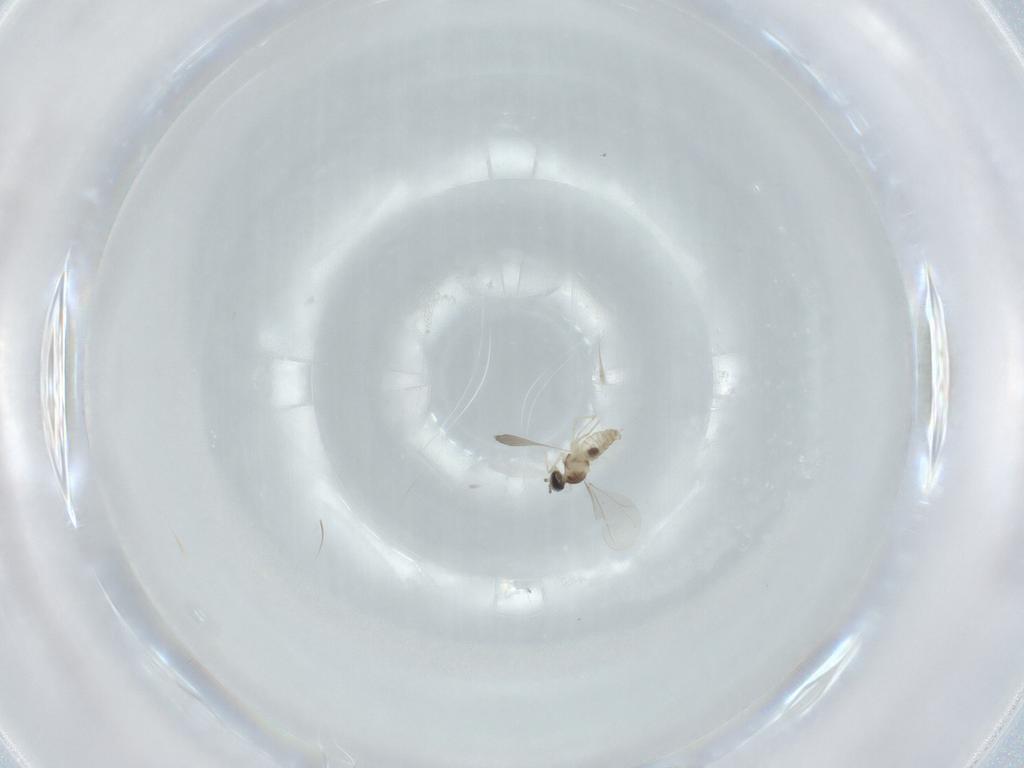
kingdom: Animalia
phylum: Arthropoda
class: Insecta
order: Diptera
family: Cecidomyiidae
